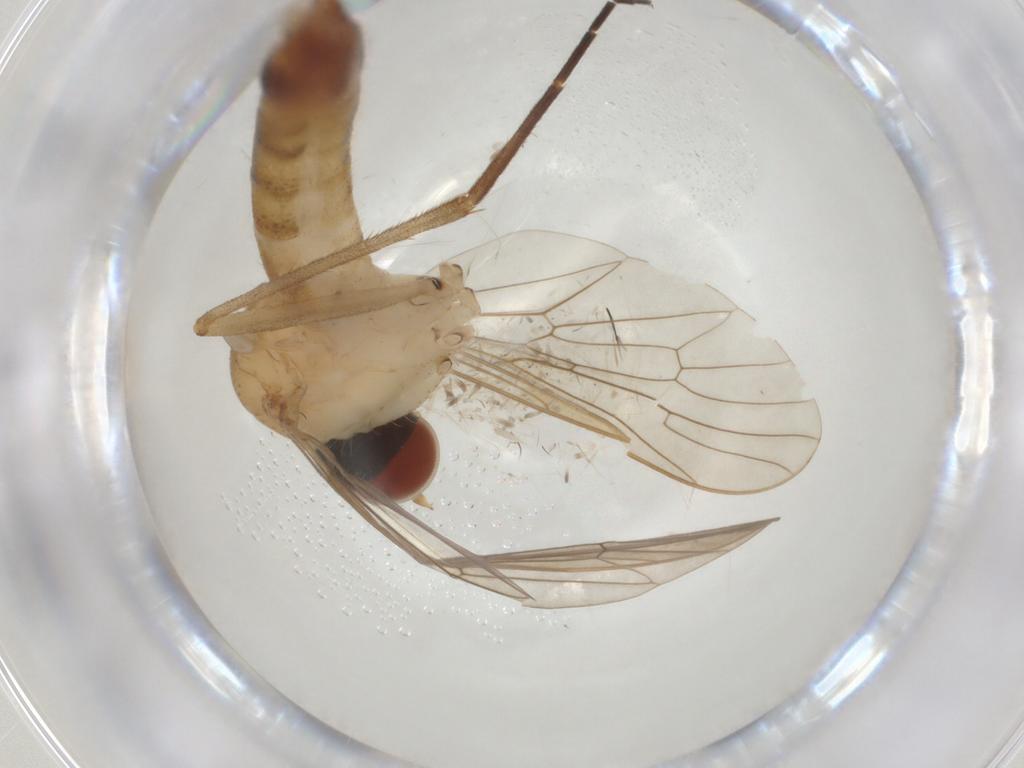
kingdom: Animalia
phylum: Arthropoda
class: Insecta
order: Diptera
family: Apsilocephalidae
